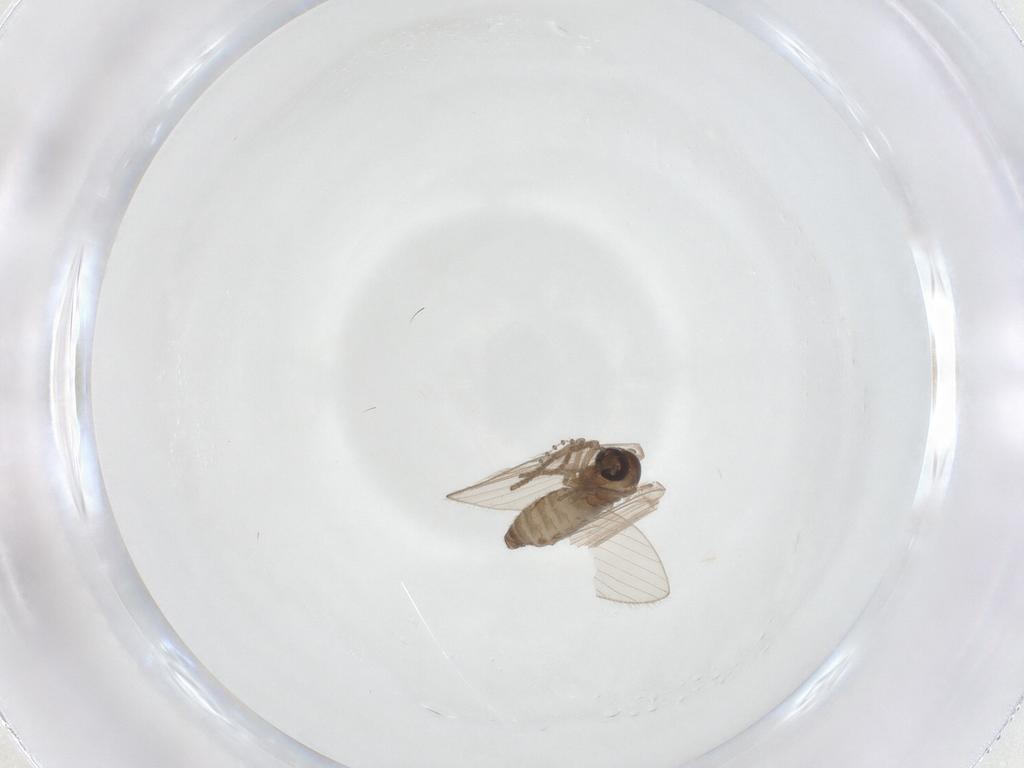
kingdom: Animalia
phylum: Arthropoda
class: Insecta
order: Diptera
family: Psychodidae
